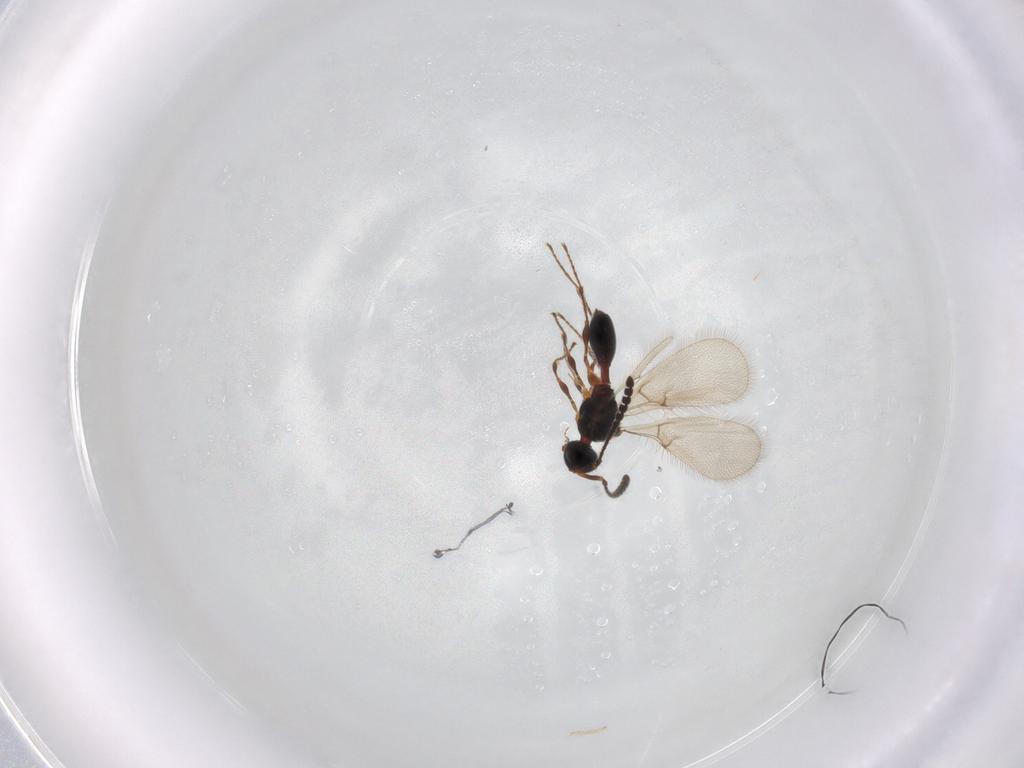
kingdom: Animalia
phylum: Arthropoda
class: Insecta
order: Hymenoptera
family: Diapriidae
